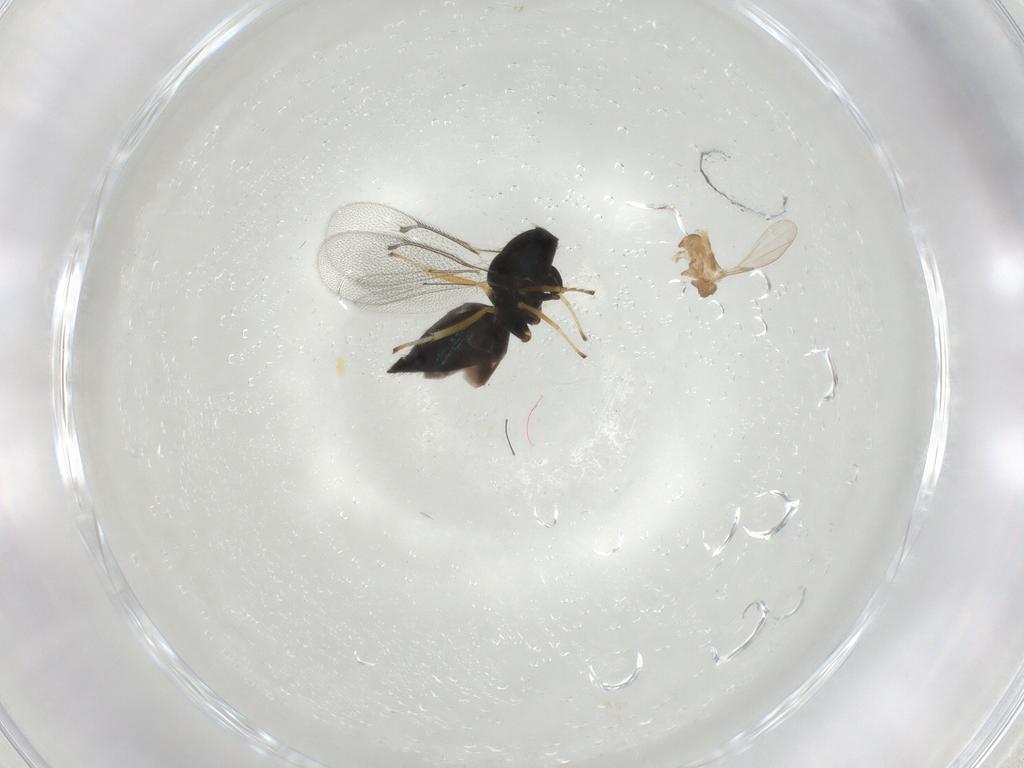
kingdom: Animalia
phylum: Arthropoda
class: Insecta
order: Hymenoptera
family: Eulophidae
